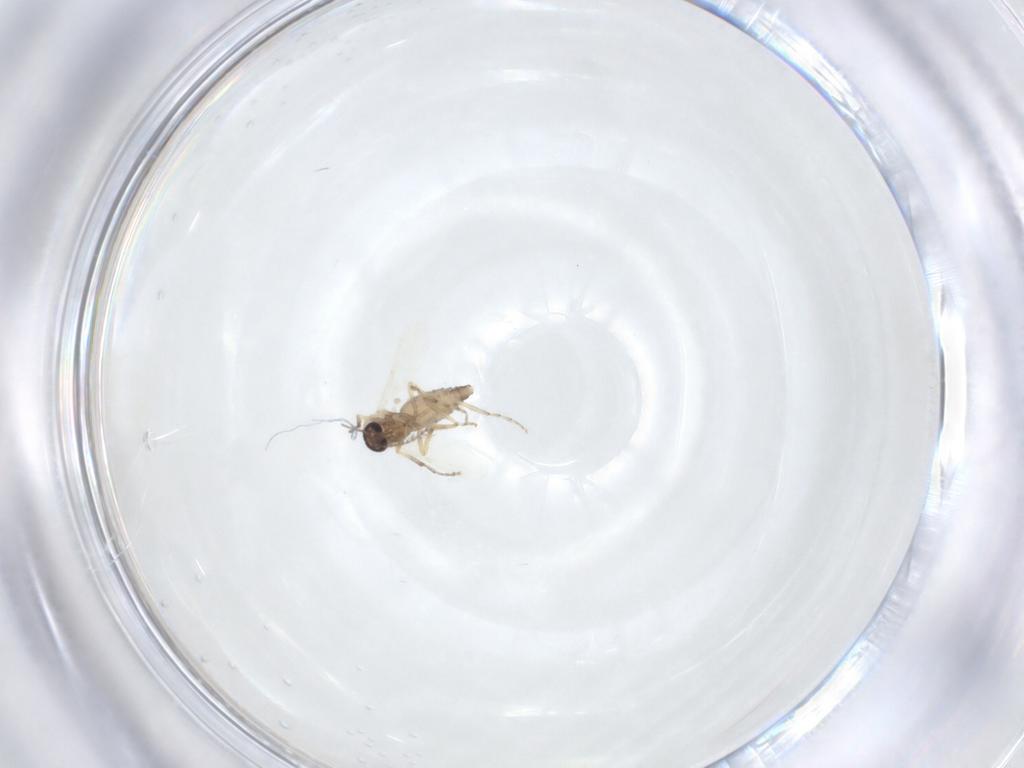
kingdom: Animalia
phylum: Arthropoda
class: Insecta
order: Diptera
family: Ceratopogonidae
